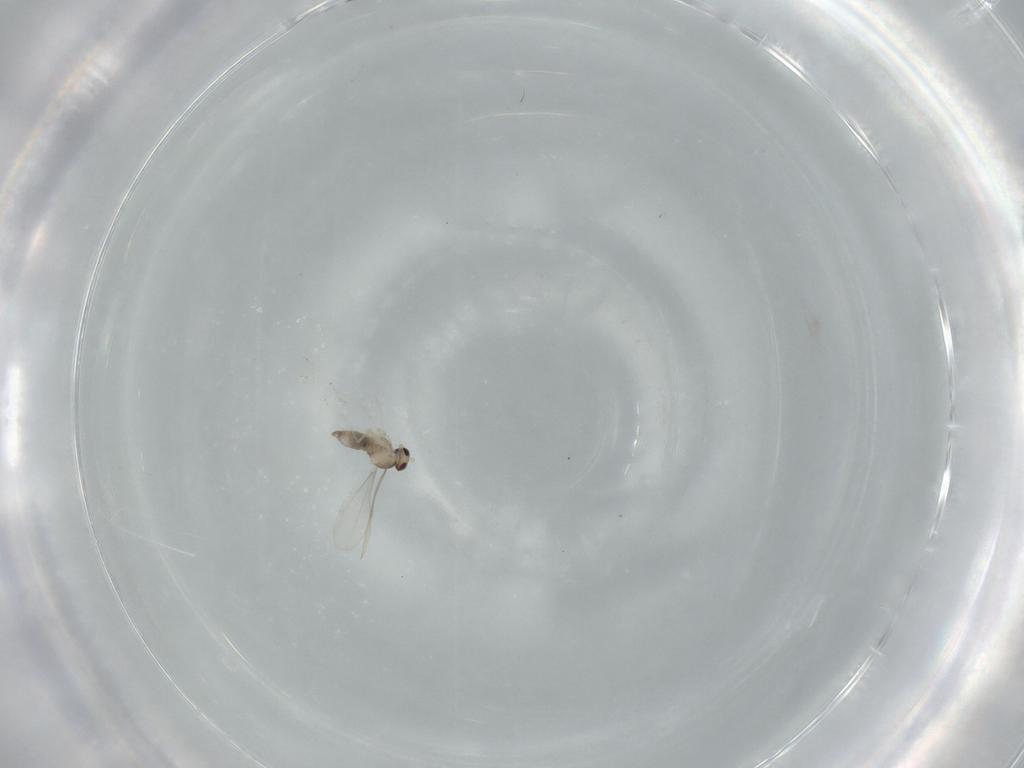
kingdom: Animalia
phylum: Arthropoda
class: Insecta
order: Diptera
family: Cecidomyiidae
